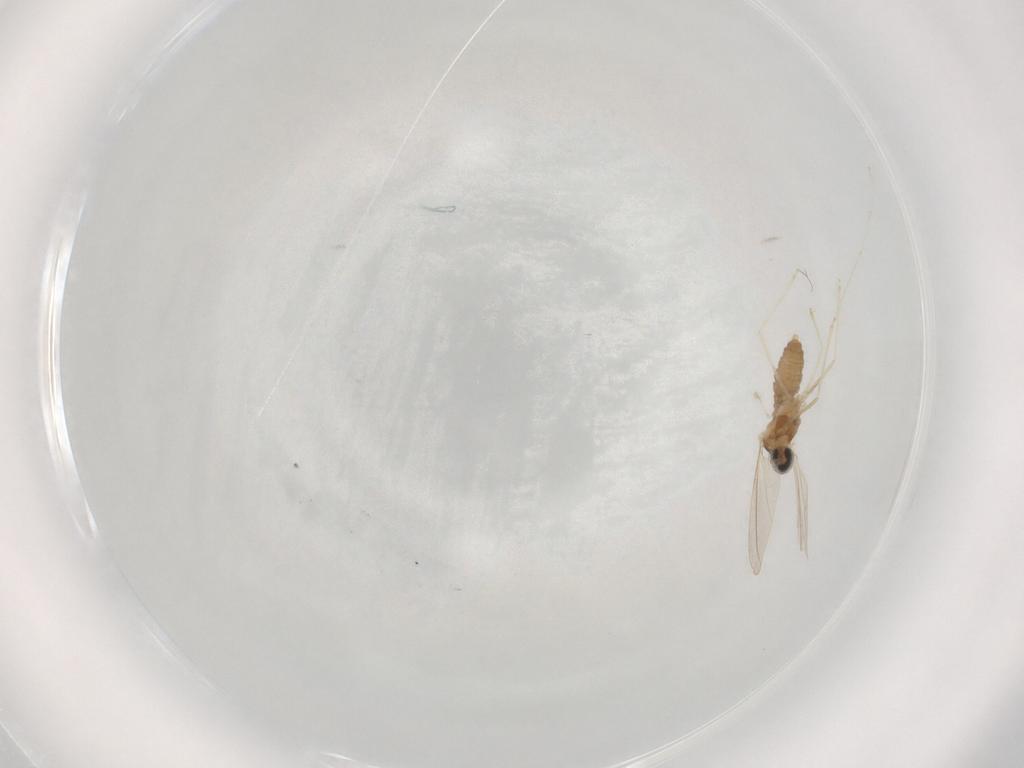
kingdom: Animalia
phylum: Arthropoda
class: Insecta
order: Diptera
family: Cecidomyiidae
